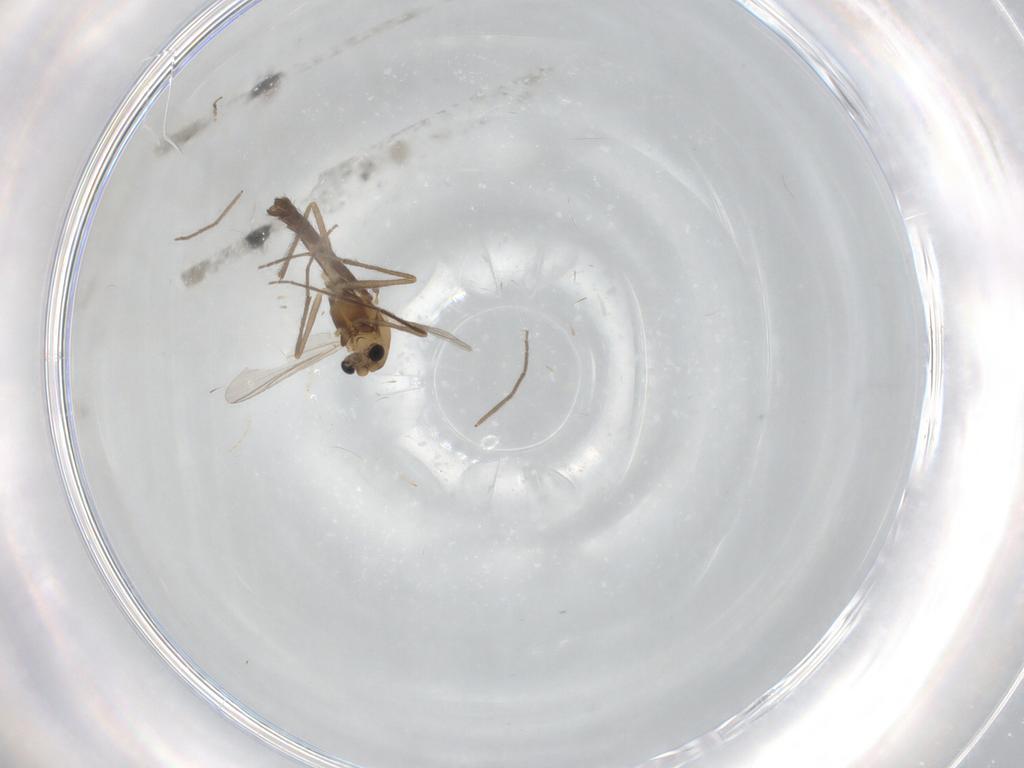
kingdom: Animalia
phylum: Arthropoda
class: Insecta
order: Diptera
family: Chironomidae
